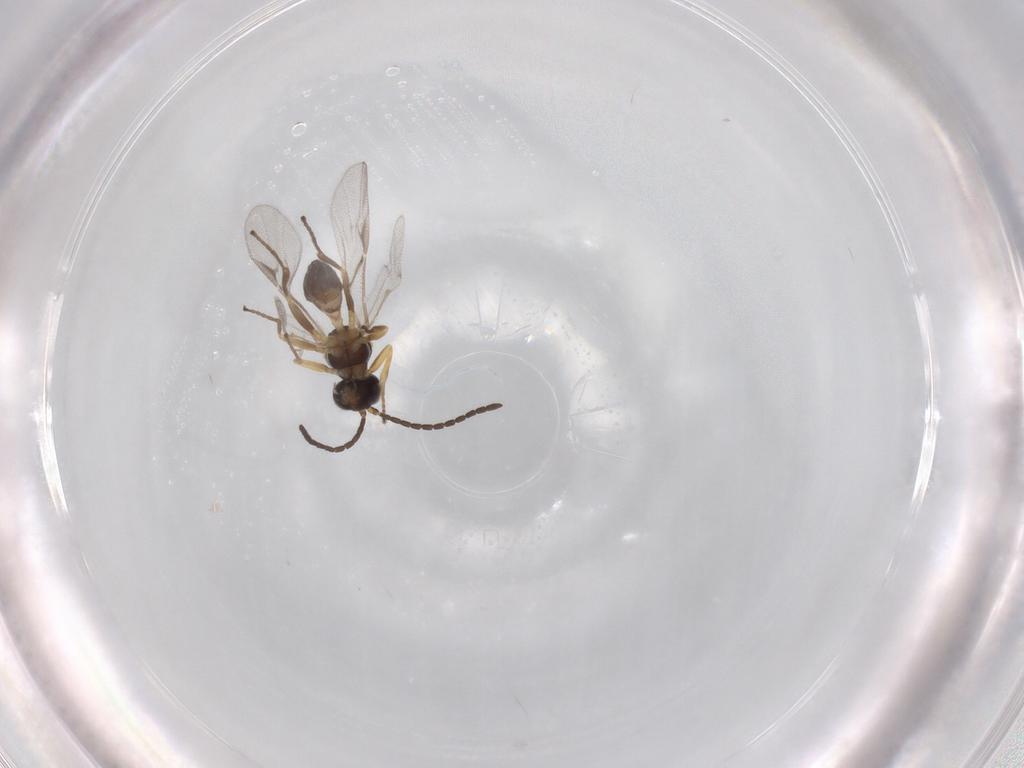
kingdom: Animalia
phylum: Arthropoda
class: Insecta
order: Hymenoptera
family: Braconidae
